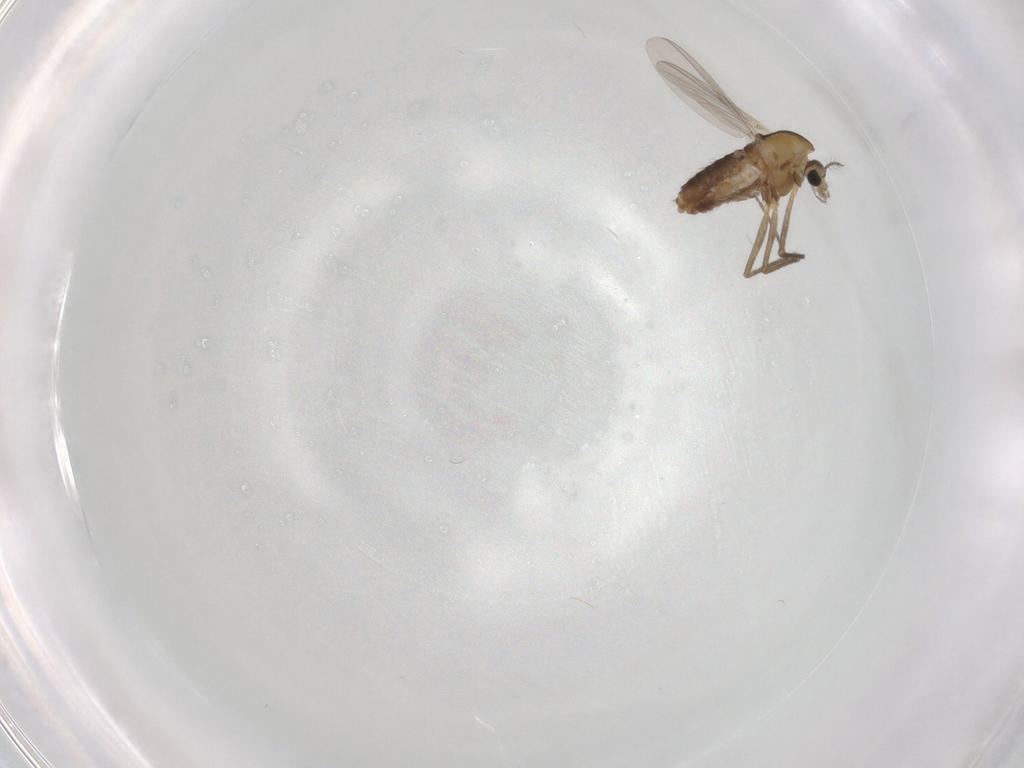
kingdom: Animalia
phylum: Arthropoda
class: Insecta
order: Diptera
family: Chironomidae
